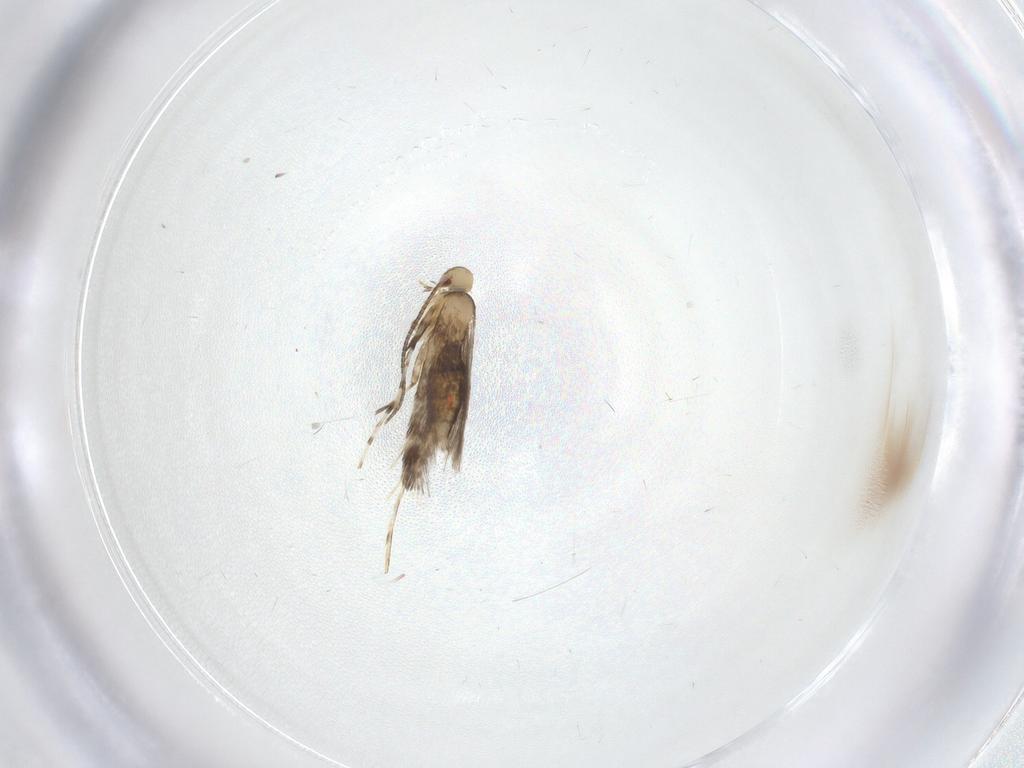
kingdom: Animalia
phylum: Arthropoda
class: Insecta
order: Lepidoptera
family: Gracillariidae
